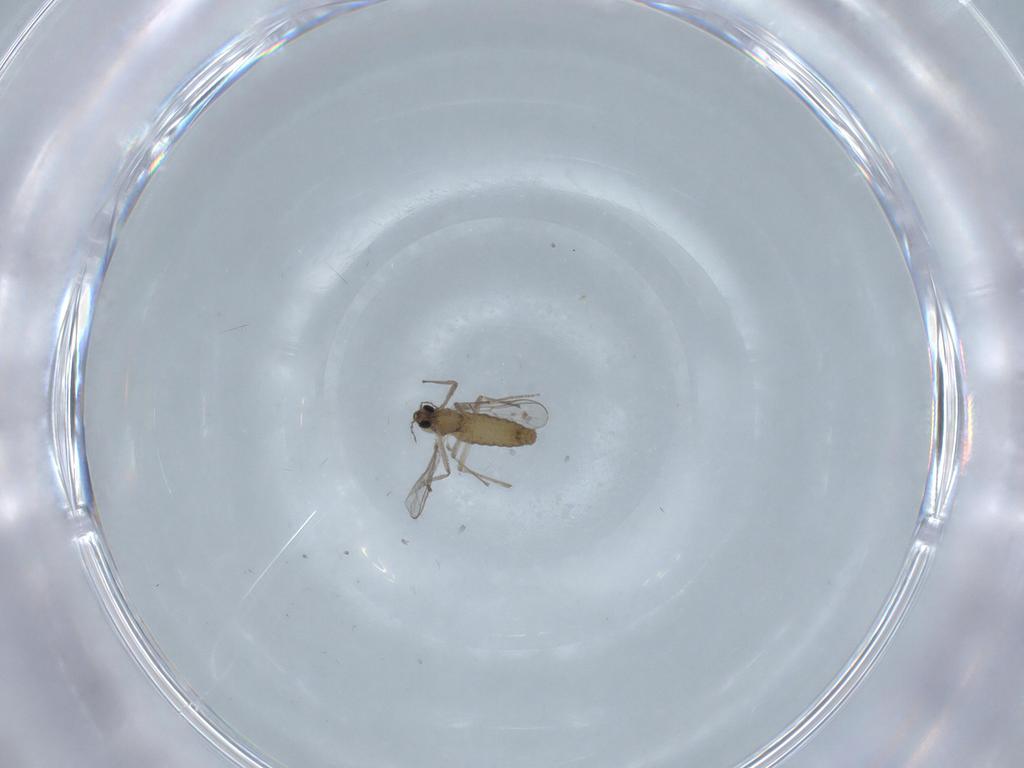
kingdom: Animalia
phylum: Arthropoda
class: Insecta
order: Diptera
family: Chironomidae
